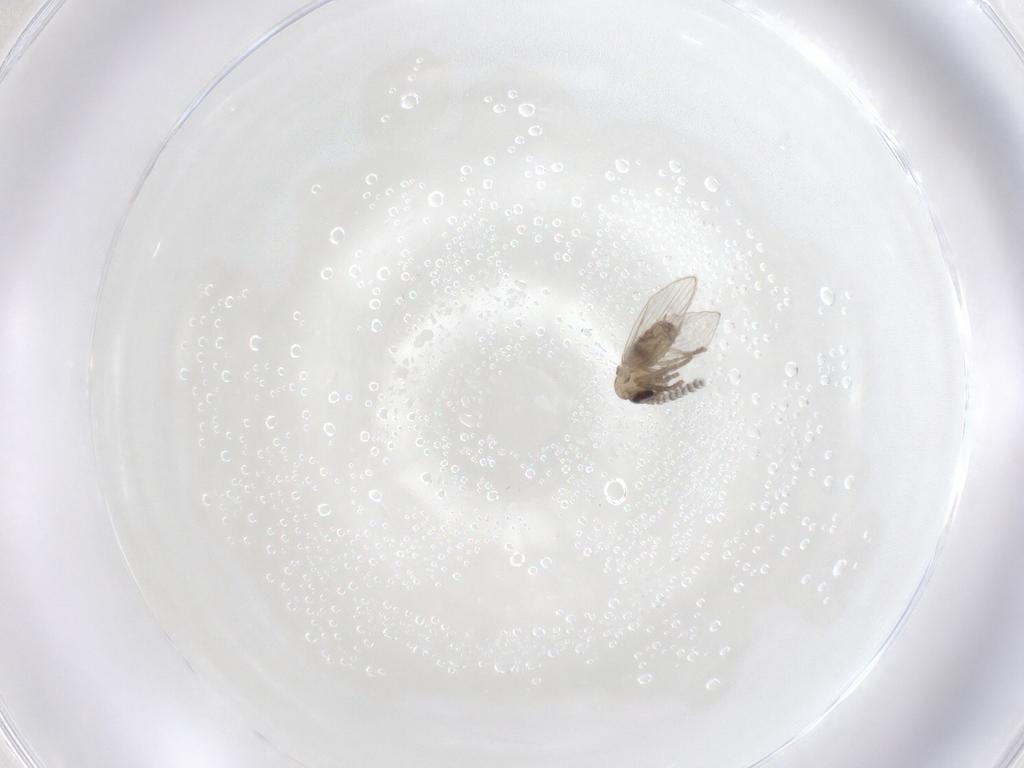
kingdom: Animalia
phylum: Arthropoda
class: Insecta
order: Diptera
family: Psychodidae
